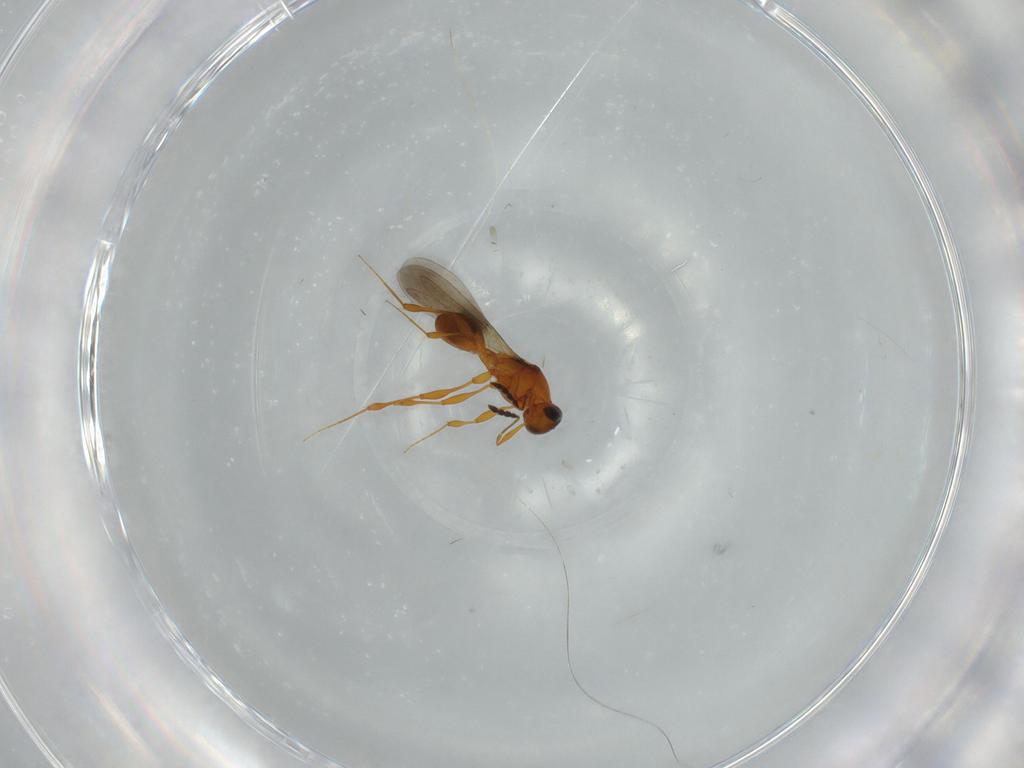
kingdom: Animalia
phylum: Arthropoda
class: Insecta
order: Hymenoptera
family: Platygastridae
